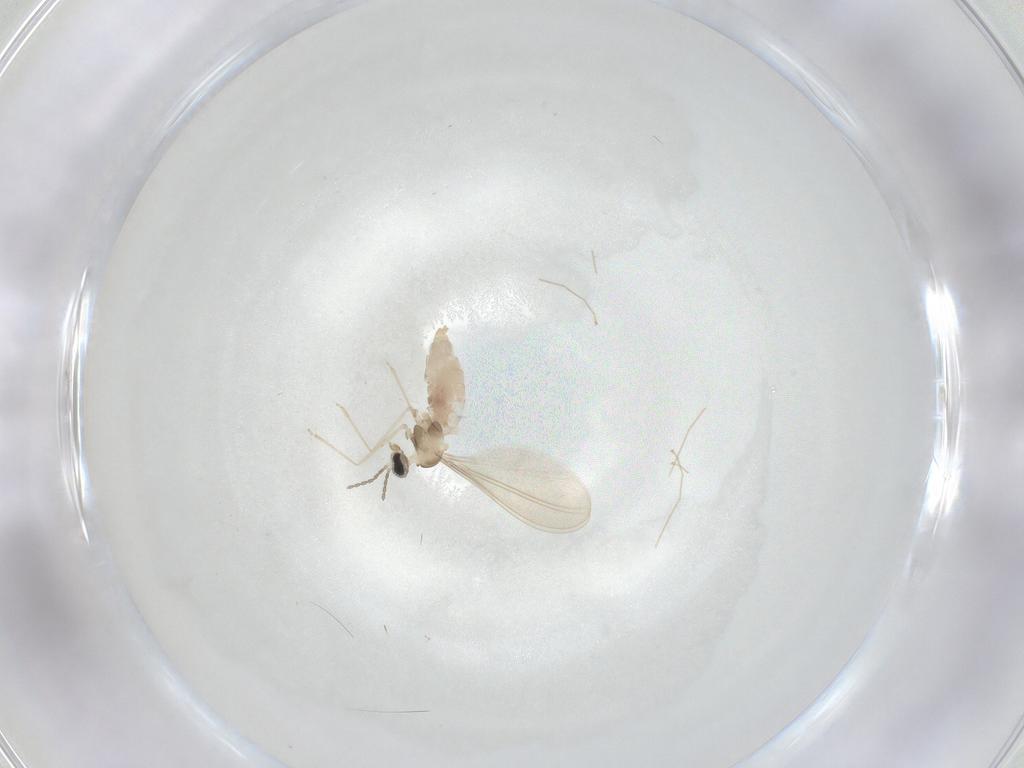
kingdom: Animalia
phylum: Arthropoda
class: Insecta
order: Diptera
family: Cecidomyiidae
